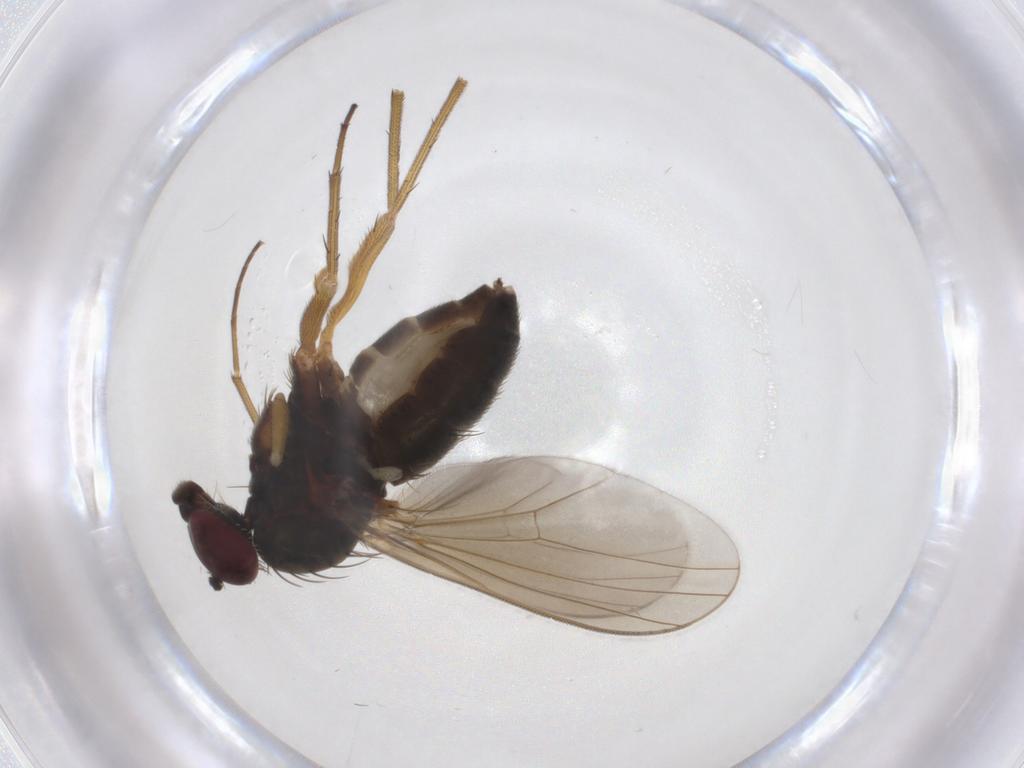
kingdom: Animalia
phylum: Arthropoda
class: Insecta
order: Diptera
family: Dolichopodidae
